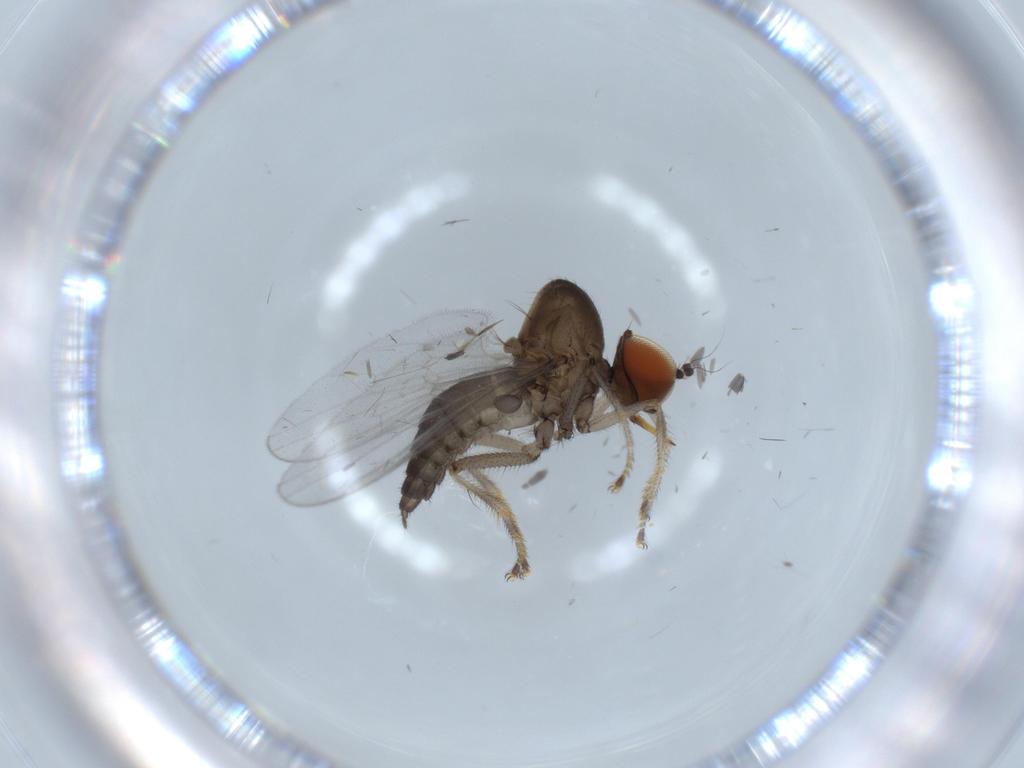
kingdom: Animalia
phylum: Arthropoda
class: Insecta
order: Diptera
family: Hybotidae
